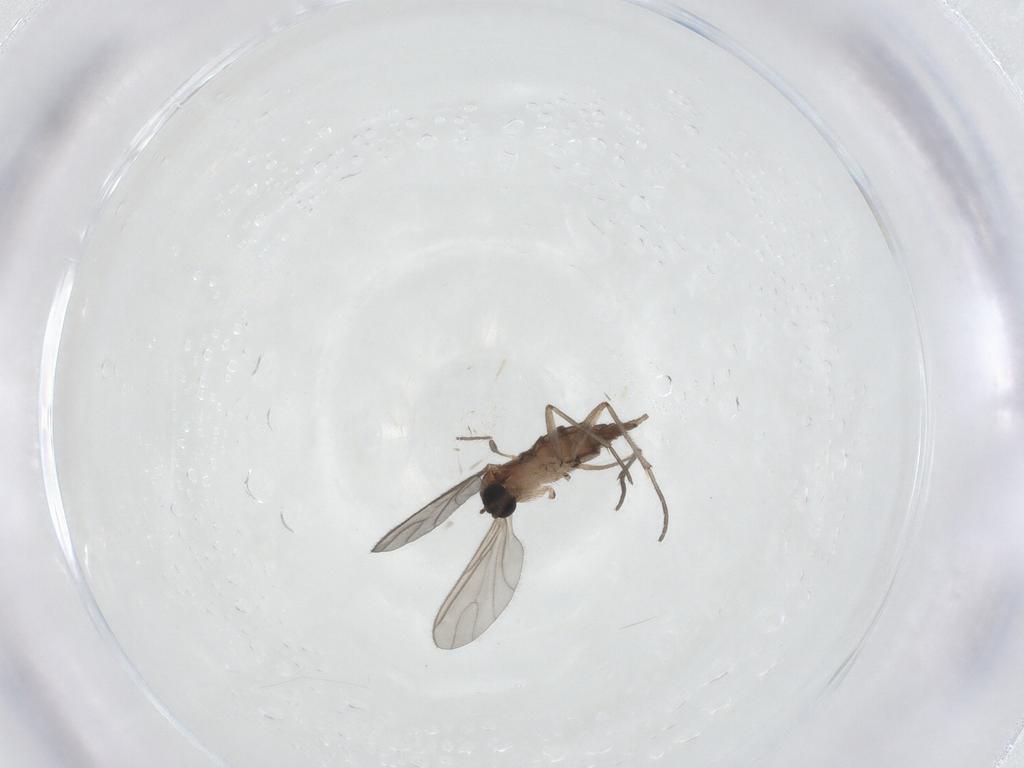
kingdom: Animalia
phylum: Arthropoda
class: Insecta
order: Diptera
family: Sciaridae
